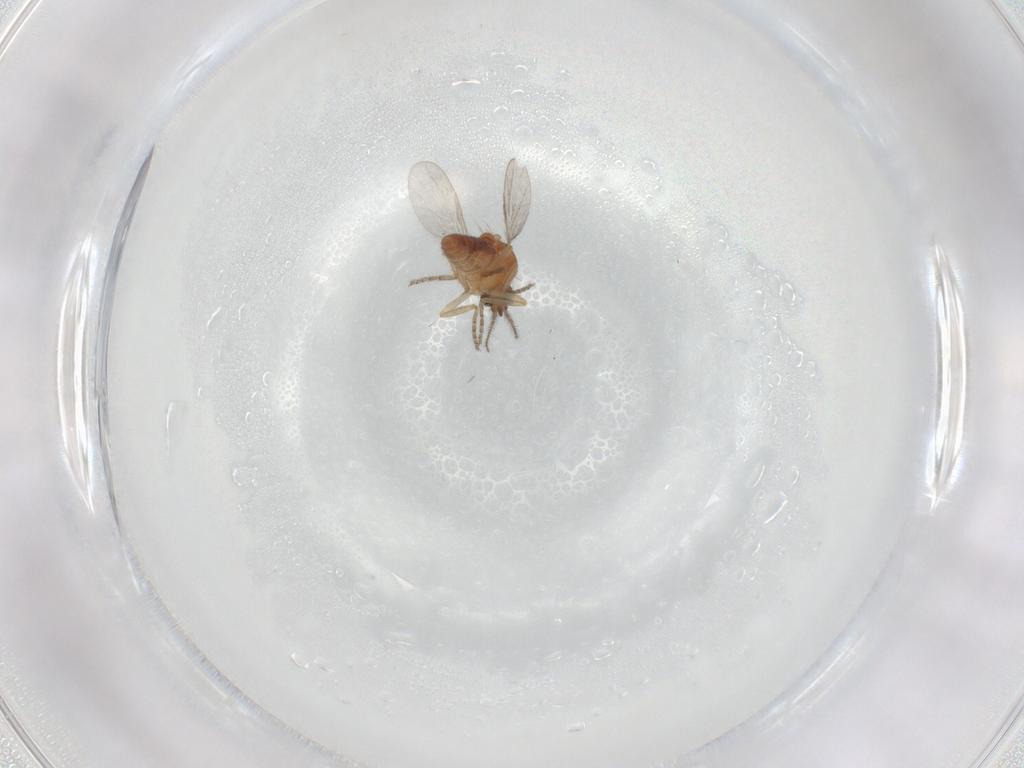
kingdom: Animalia
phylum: Arthropoda
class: Insecta
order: Diptera
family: Ceratopogonidae
